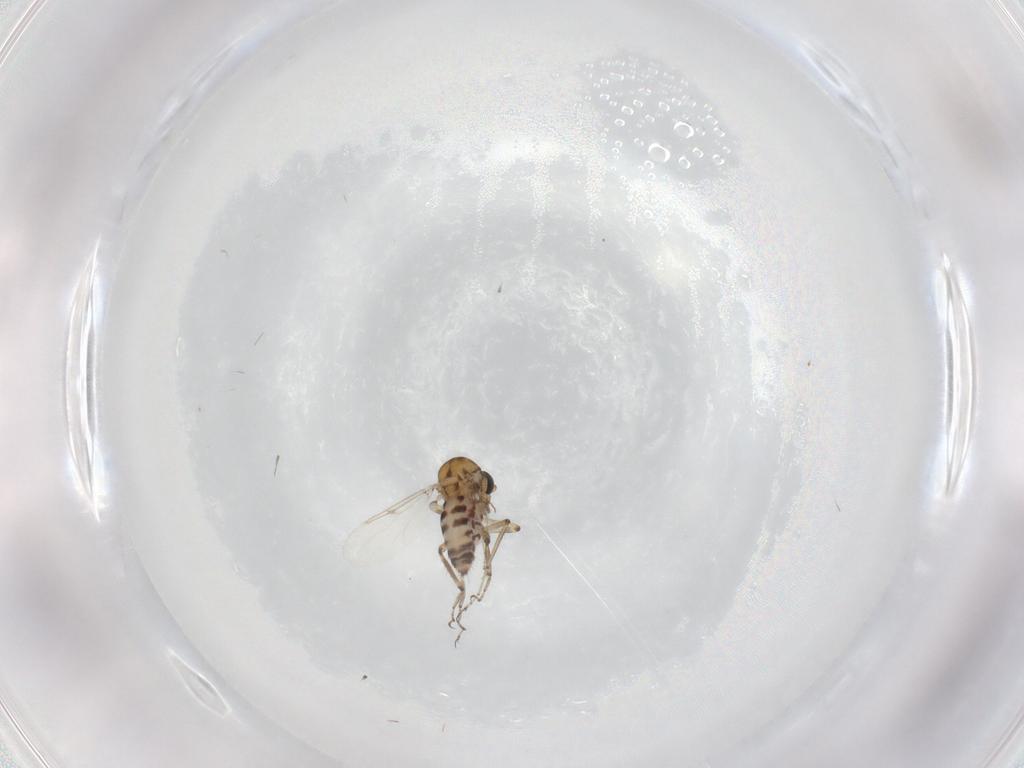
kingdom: Animalia
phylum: Arthropoda
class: Insecta
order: Diptera
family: Ceratopogonidae
